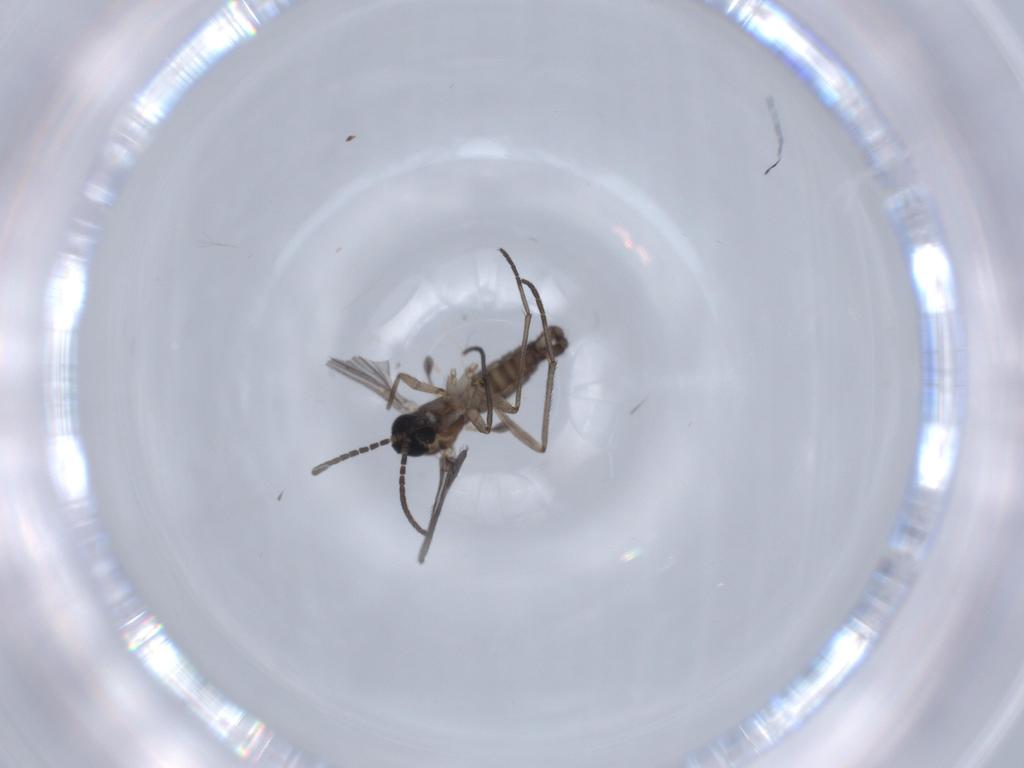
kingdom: Animalia
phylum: Arthropoda
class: Insecta
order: Diptera
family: Sciaridae
